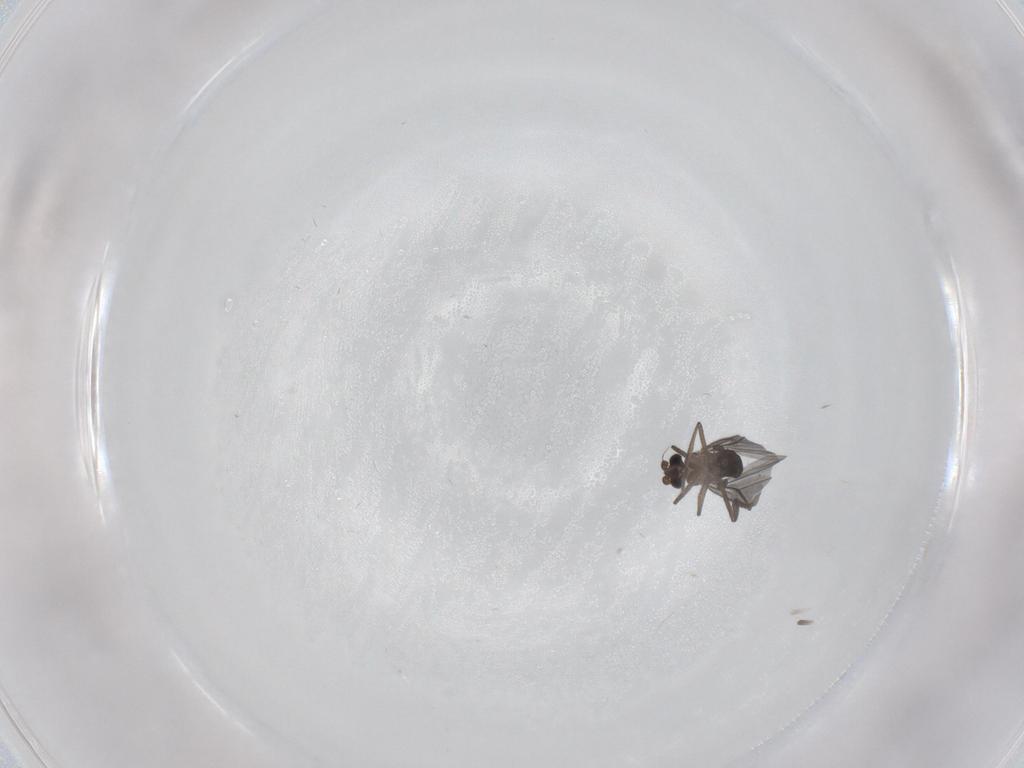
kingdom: Animalia
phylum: Arthropoda
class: Insecta
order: Diptera
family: Phoridae
